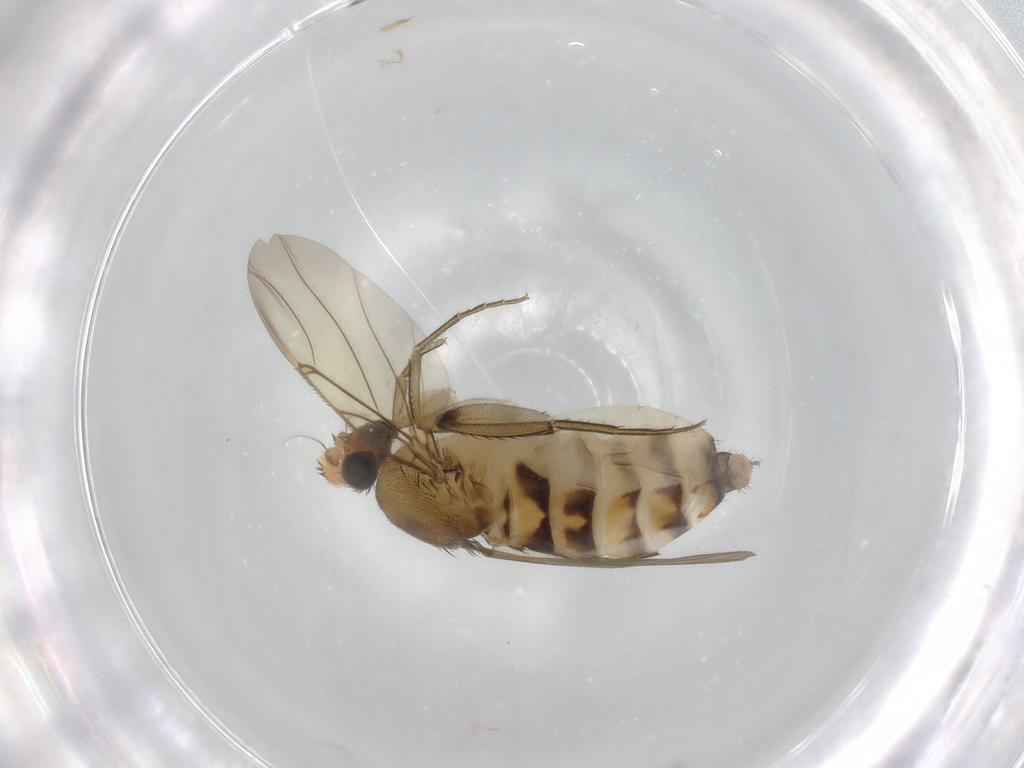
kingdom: Animalia
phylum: Arthropoda
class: Insecta
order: Diptera
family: Phoridae
